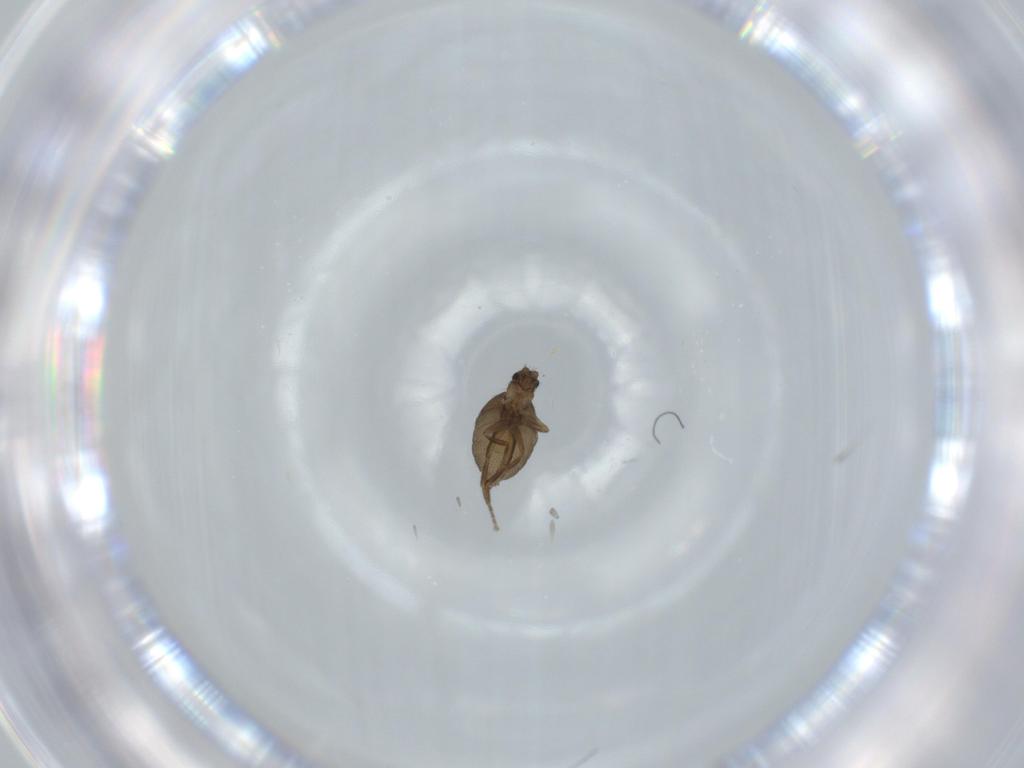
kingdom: Animalia
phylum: Arthropoda
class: Insecta
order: Diptera
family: Phoridae
